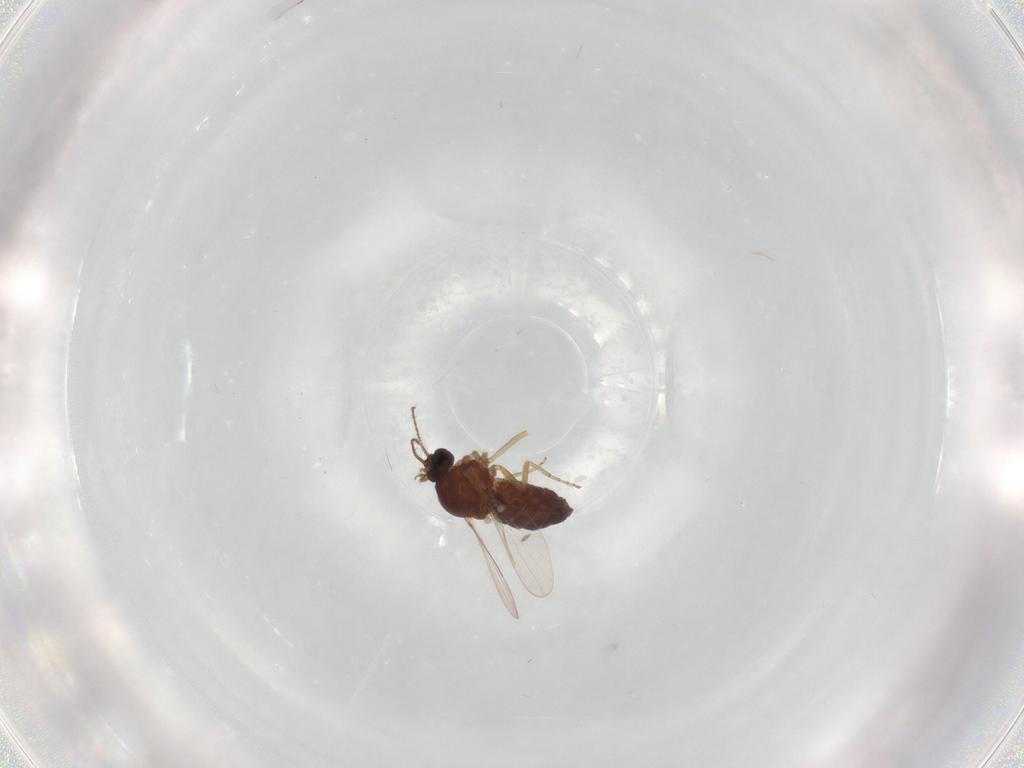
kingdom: Animalia
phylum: Arthropoda
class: Insecta
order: Diptera
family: Ceratopogonidae
